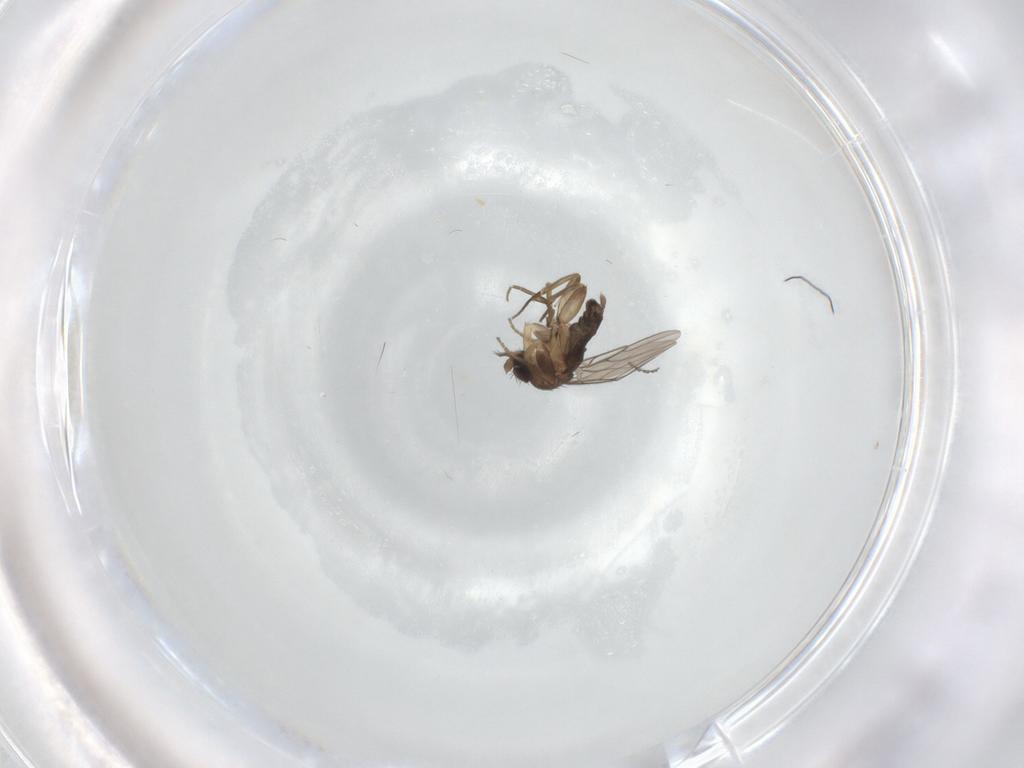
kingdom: Animalia
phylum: Arthropoda
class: Insecta
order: Diptera
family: Phoridae
